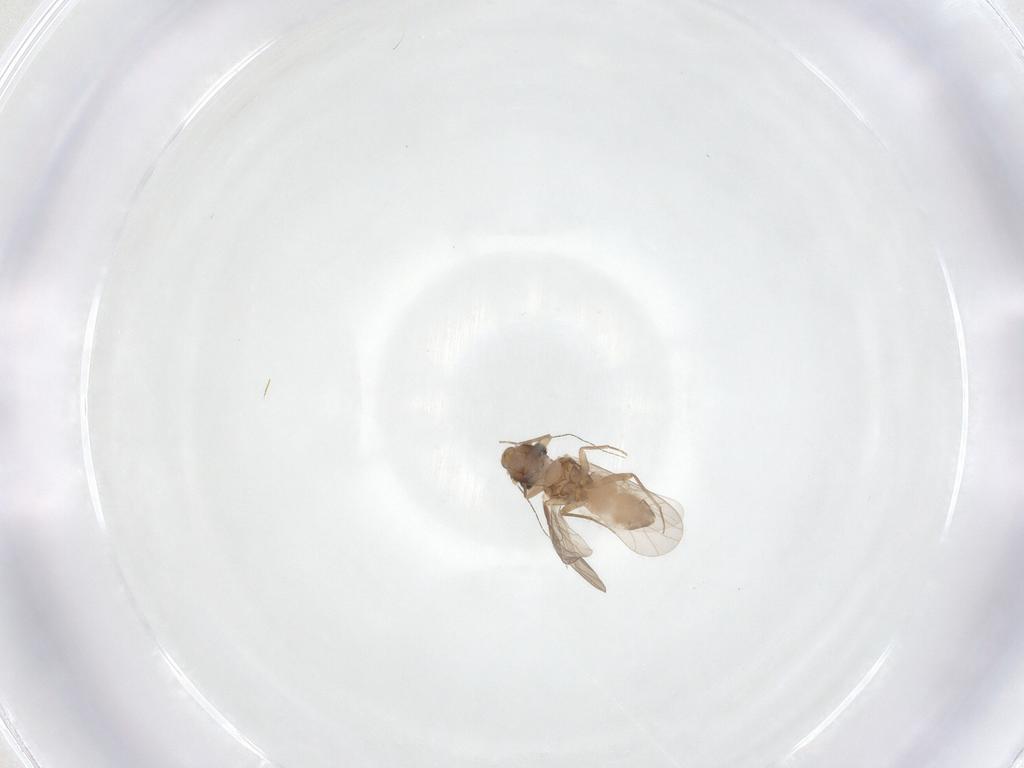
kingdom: Animalia
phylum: Arthropoda
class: Insecta
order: Psocodea
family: Lepidopsocidae
